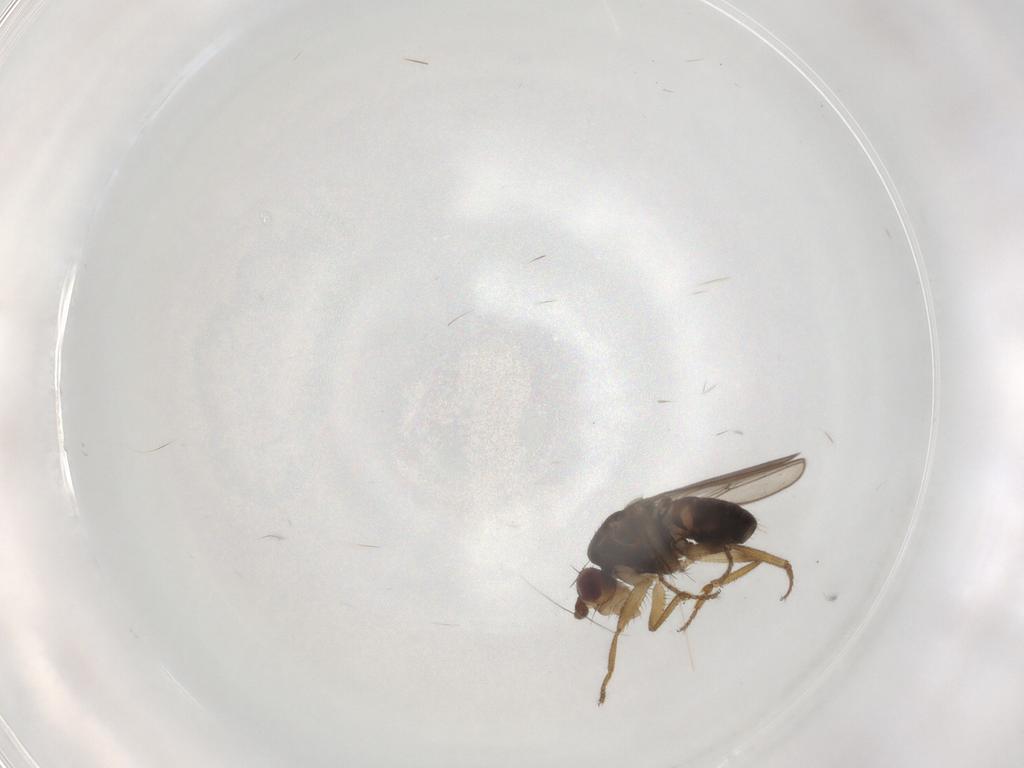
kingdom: Animalia
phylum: Arthropoda
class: Insecta
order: Diptera
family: Sphaeroceridae
